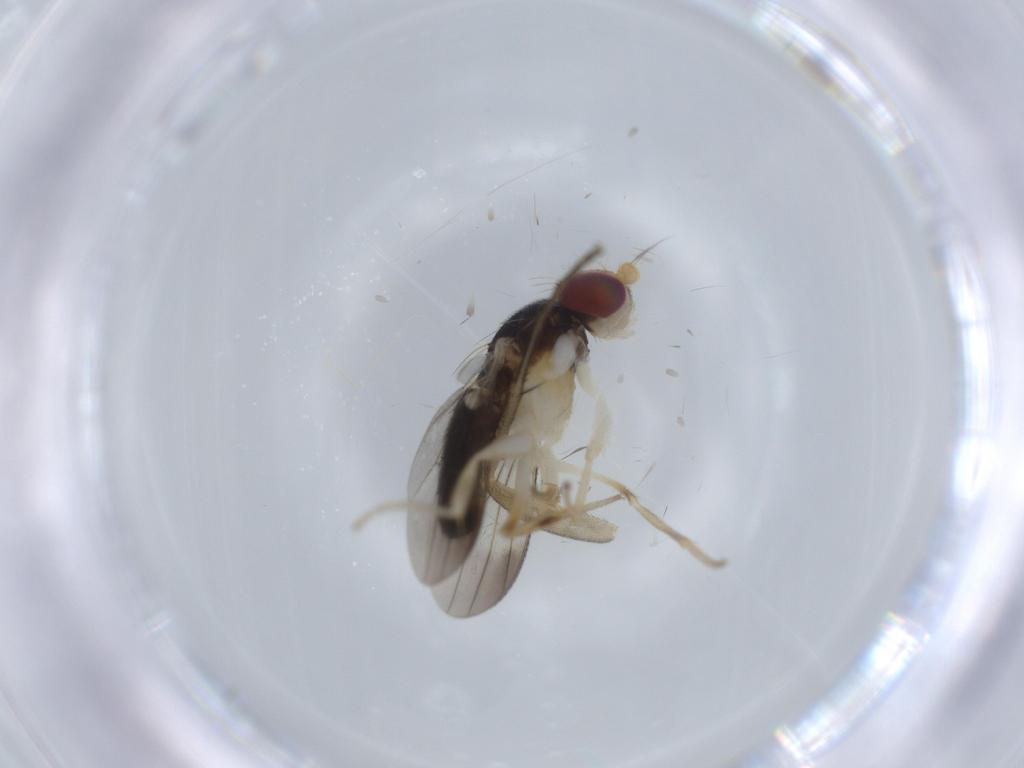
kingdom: Animalia
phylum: Arthropoda
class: Insecta
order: Diptera
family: Clusiidae
